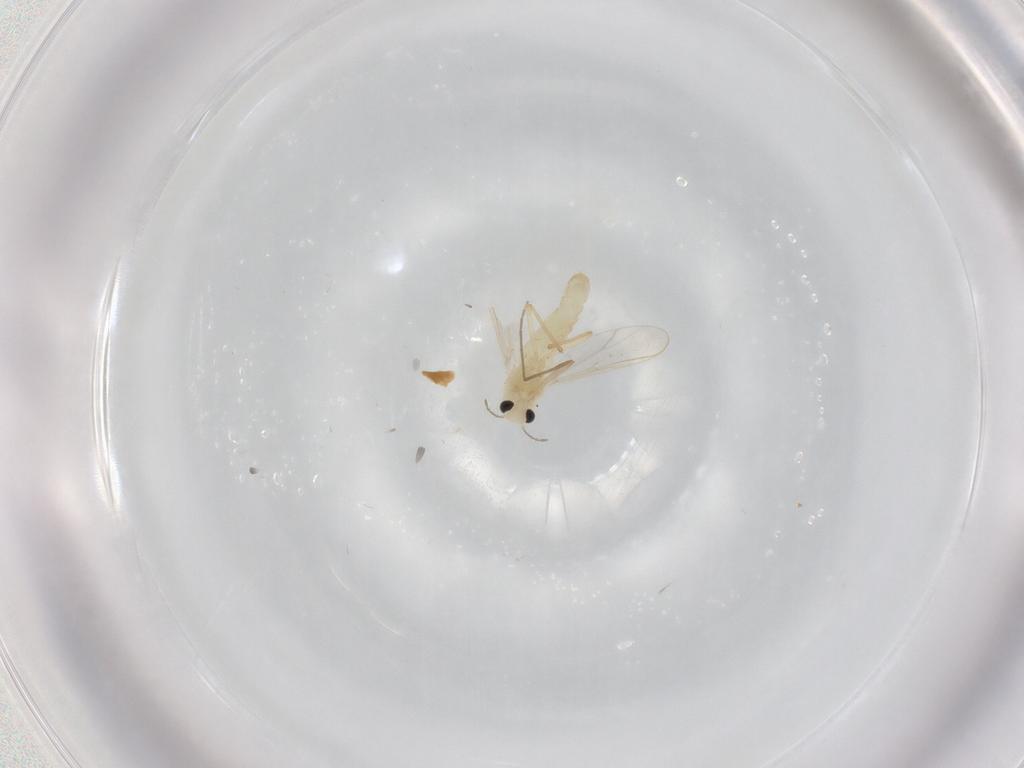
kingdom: Animalia
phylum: Arthropoda
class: Insecta
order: Diptera
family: Chironomidae
